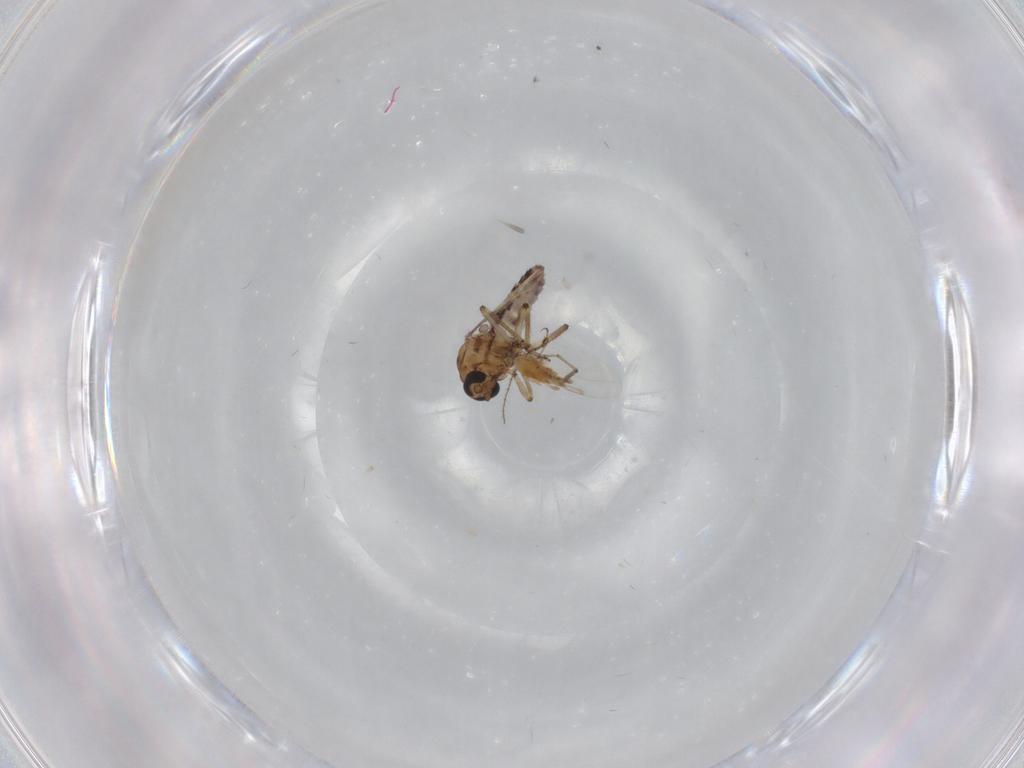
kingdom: Animalia
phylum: Arthropoda
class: Insecta
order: Diptera
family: Ceratopogonidae
